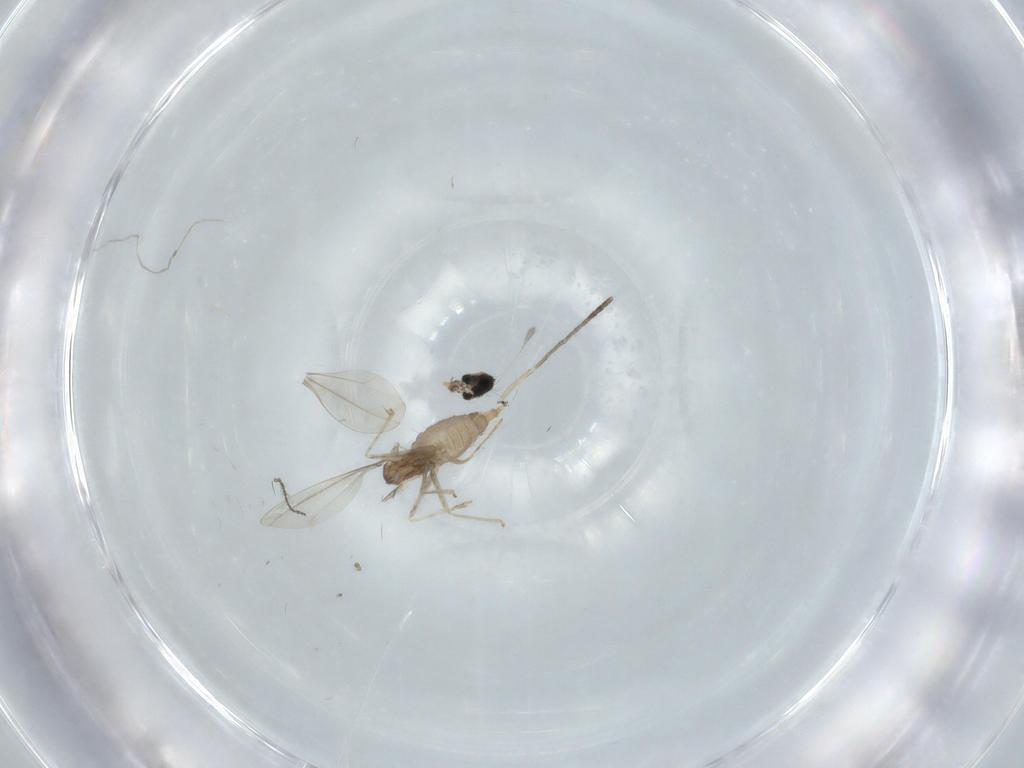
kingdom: Animalia
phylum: Arthropoda
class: Insecta
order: Diptera
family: Cecidomyiidae
